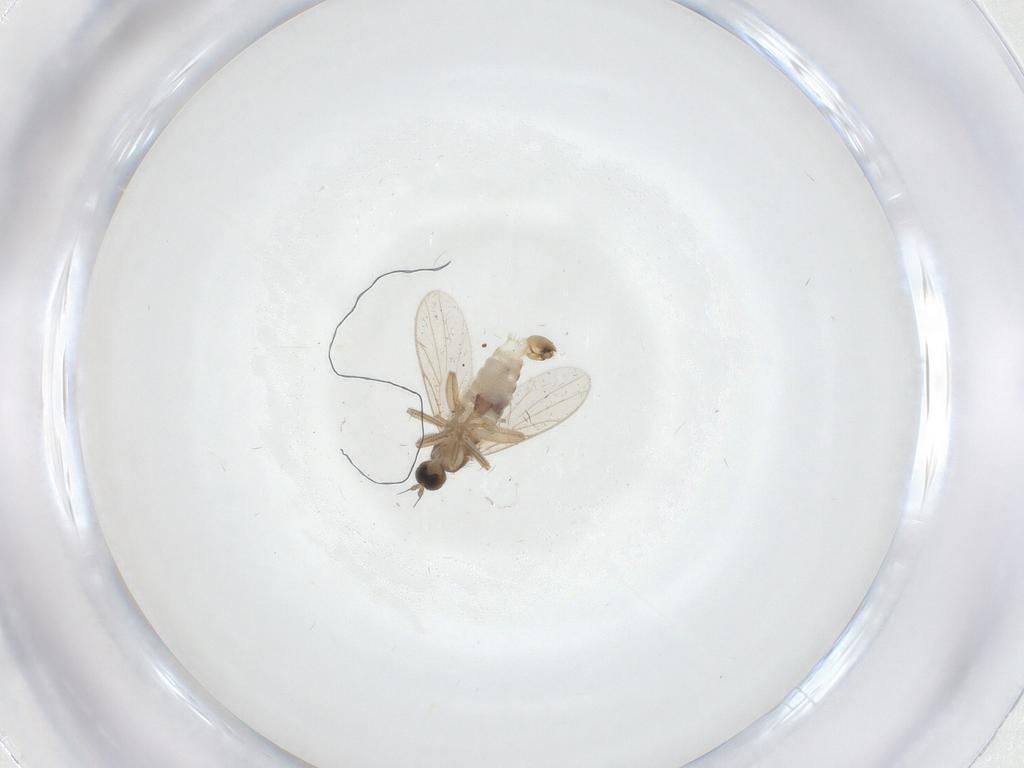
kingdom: Animalia
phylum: Arthropoda
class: Insecta
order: Diptera
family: Hybotidae
